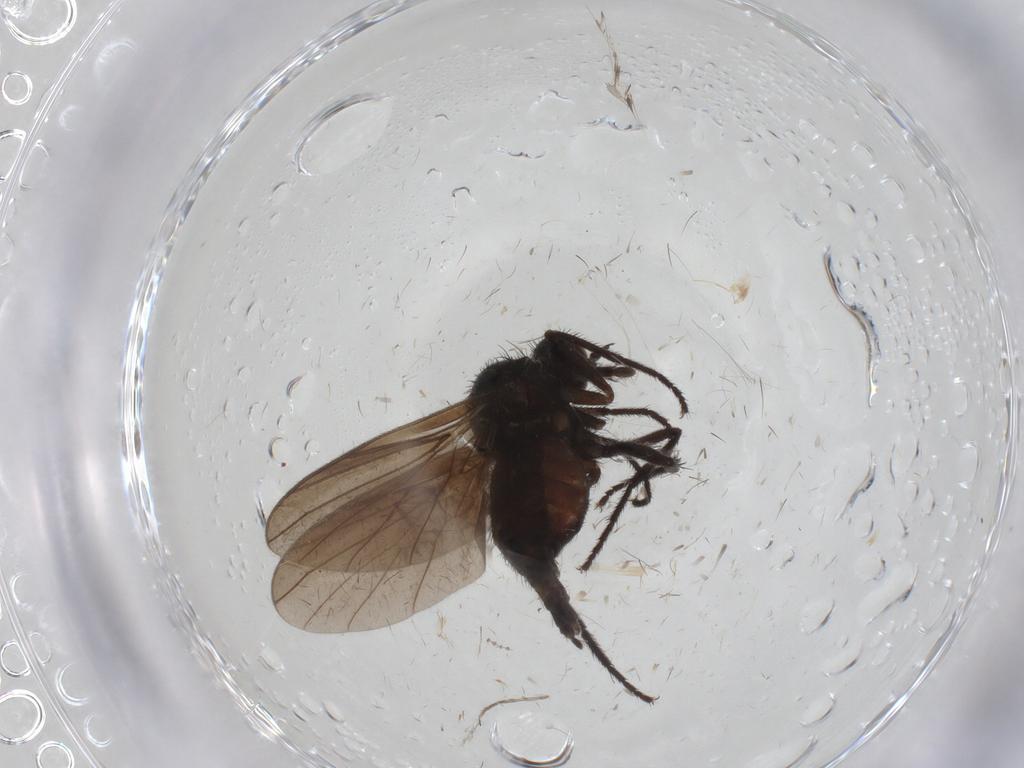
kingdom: Animalia
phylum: Arthropoda
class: Insecta
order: Diptera
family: Empididae
